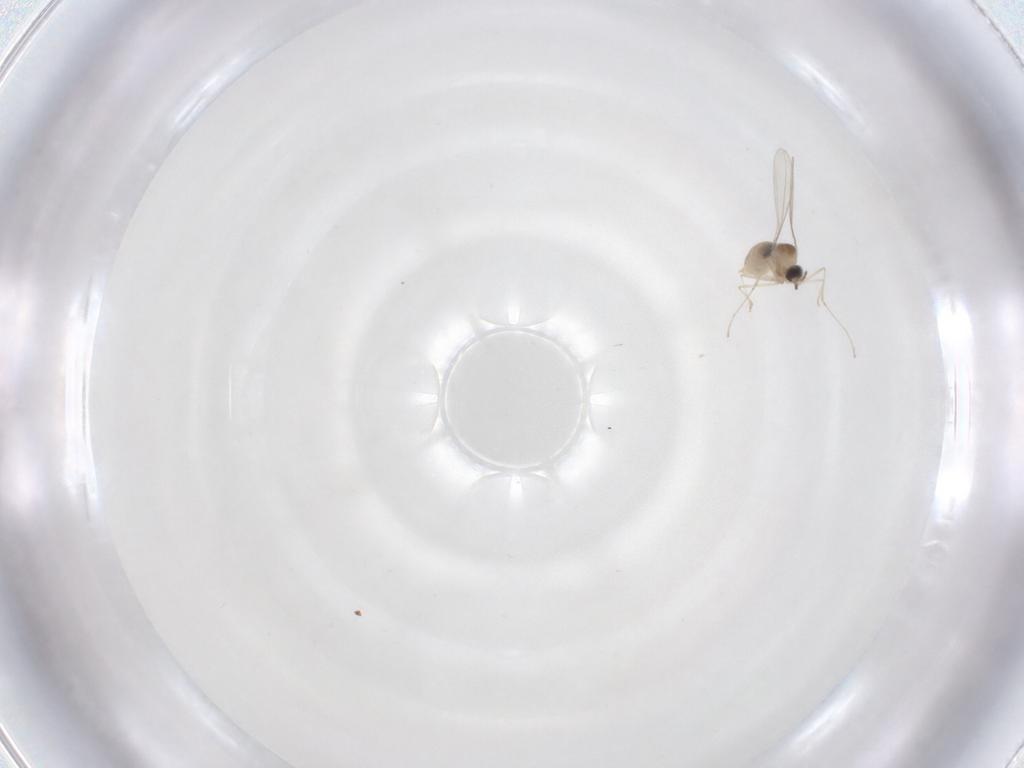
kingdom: Animalia
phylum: Arthropoda
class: Insecta
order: Diptera
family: Cecidomyiidae
